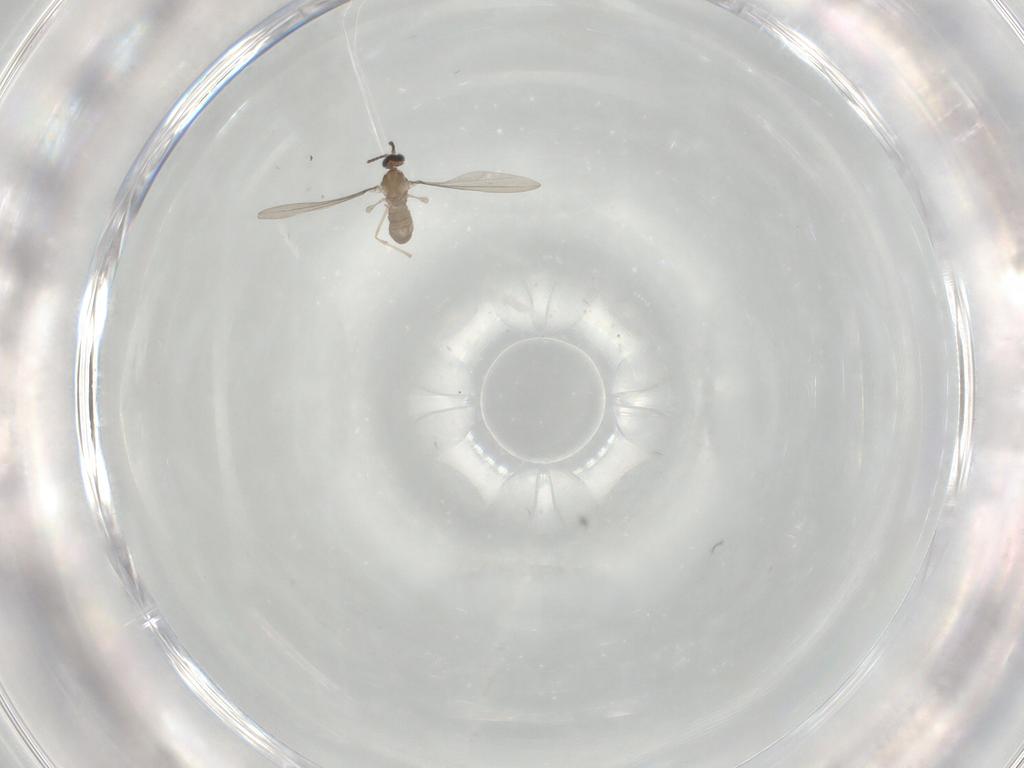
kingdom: Animalia
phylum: Arthropoda
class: Insecta
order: Diptera
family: Cecidomyiidae
